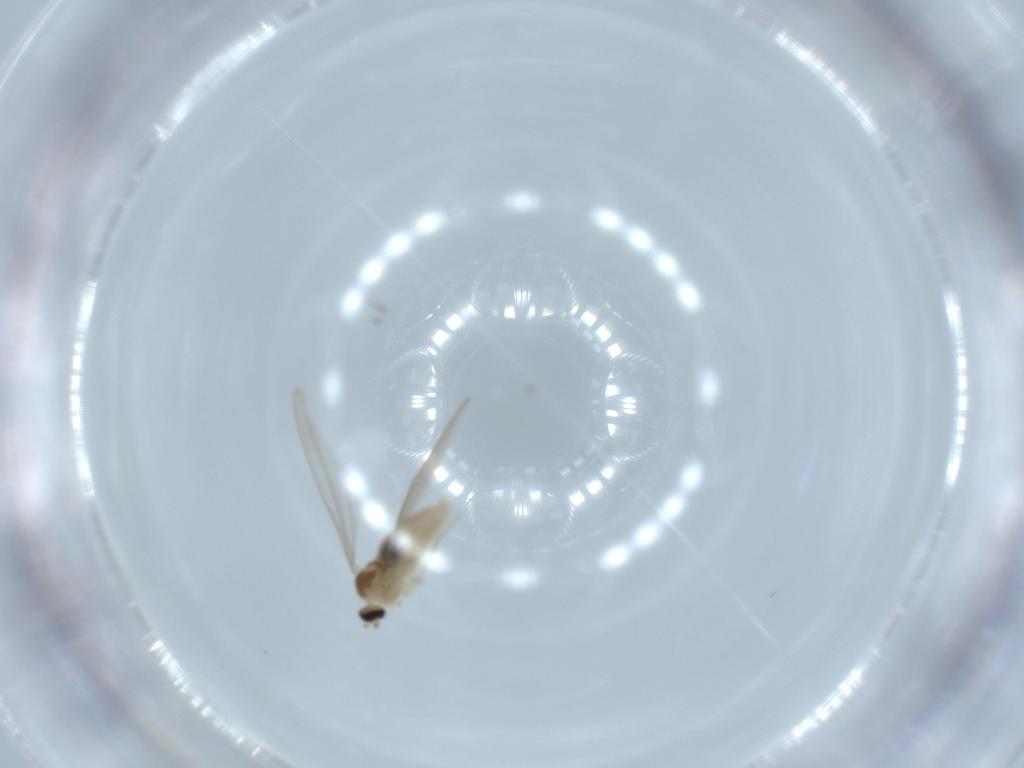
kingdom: Animalia
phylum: Arthropoda
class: Insecta
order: Diptera
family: Cecidomyiidae
